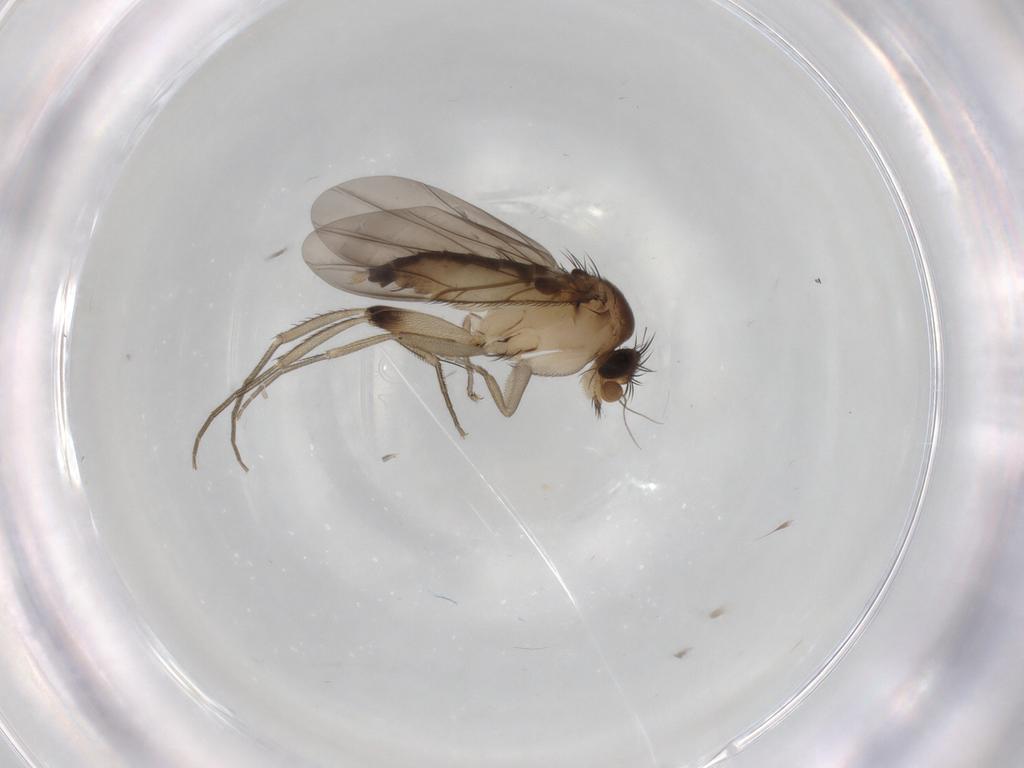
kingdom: Animalia
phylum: Arthropoda
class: Insecta
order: Diptera
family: Phoridae
